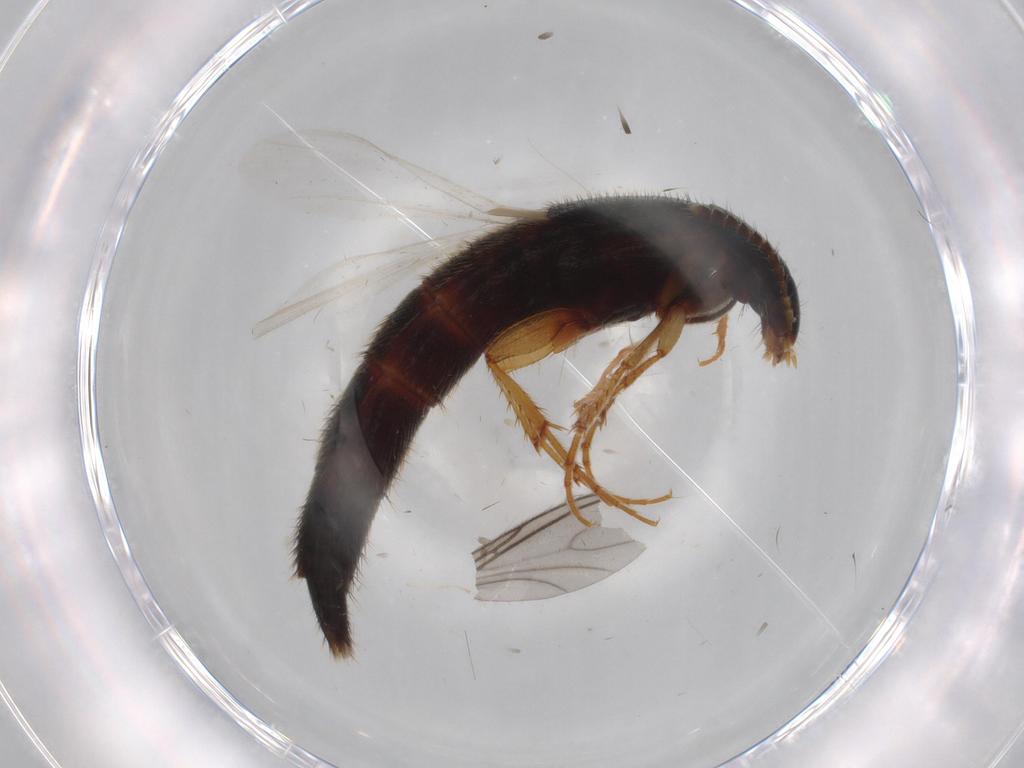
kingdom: Animalia
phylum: Arthropoda
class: Insecta
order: Coleoptera
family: Staphylinidae
